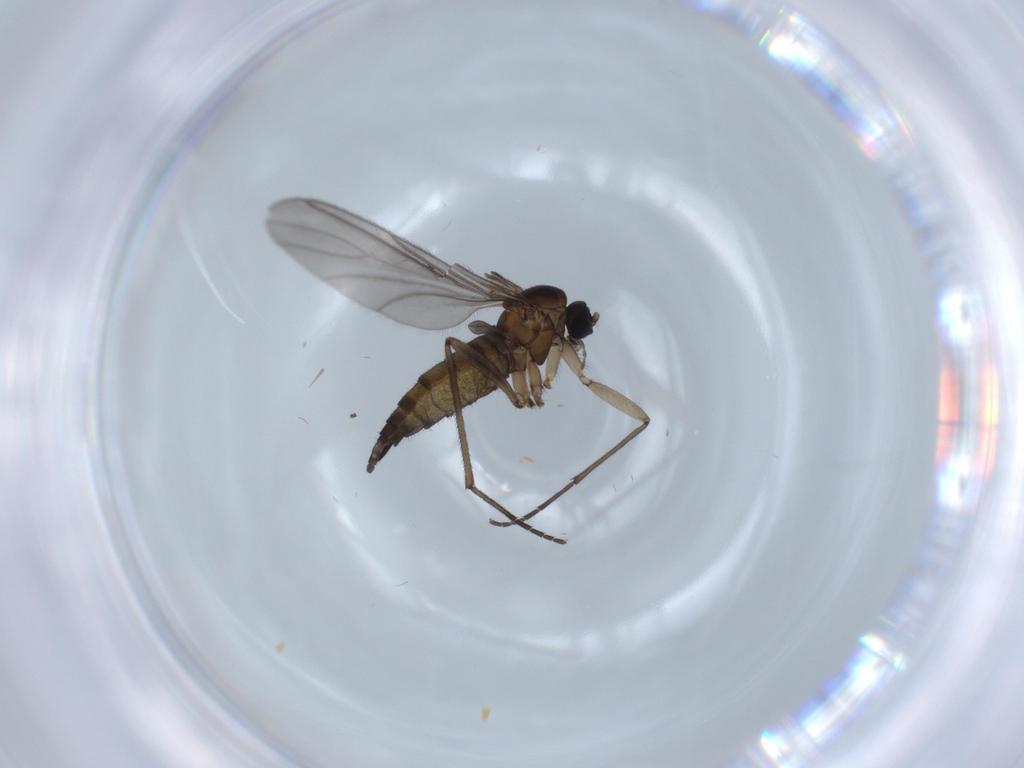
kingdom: Animalia
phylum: Arthropoda
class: Insecta
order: Diptera
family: Sciaridae
